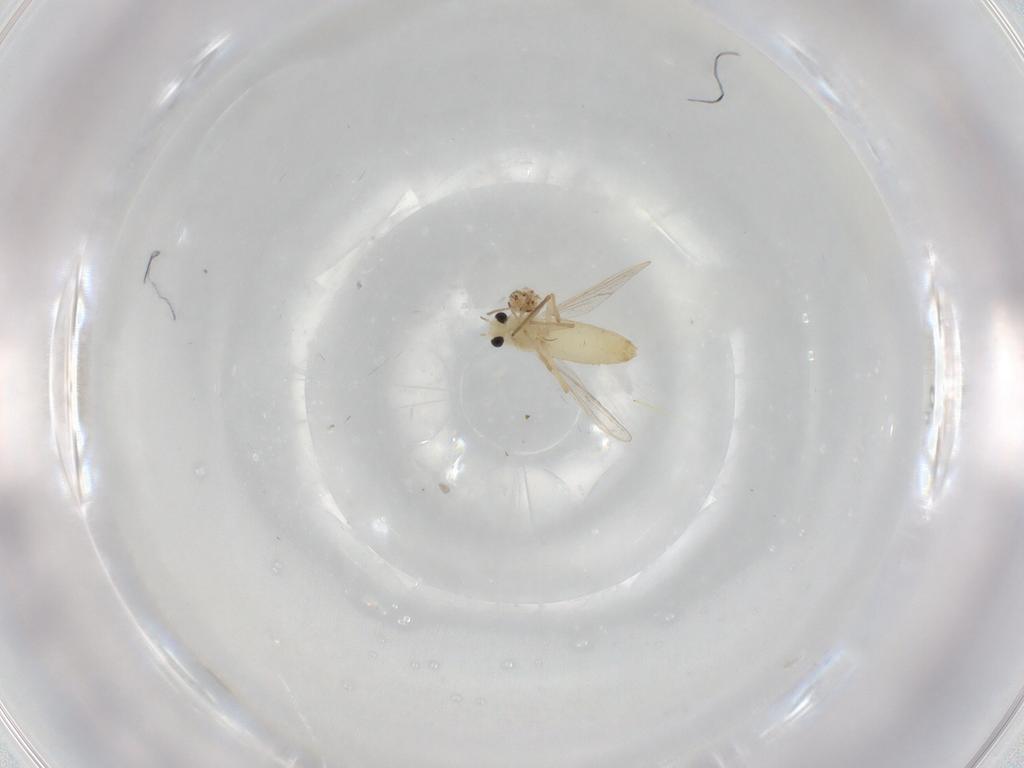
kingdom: Animalia
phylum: Arthropoda
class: Insecta
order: Diptera
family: Chironomidae
